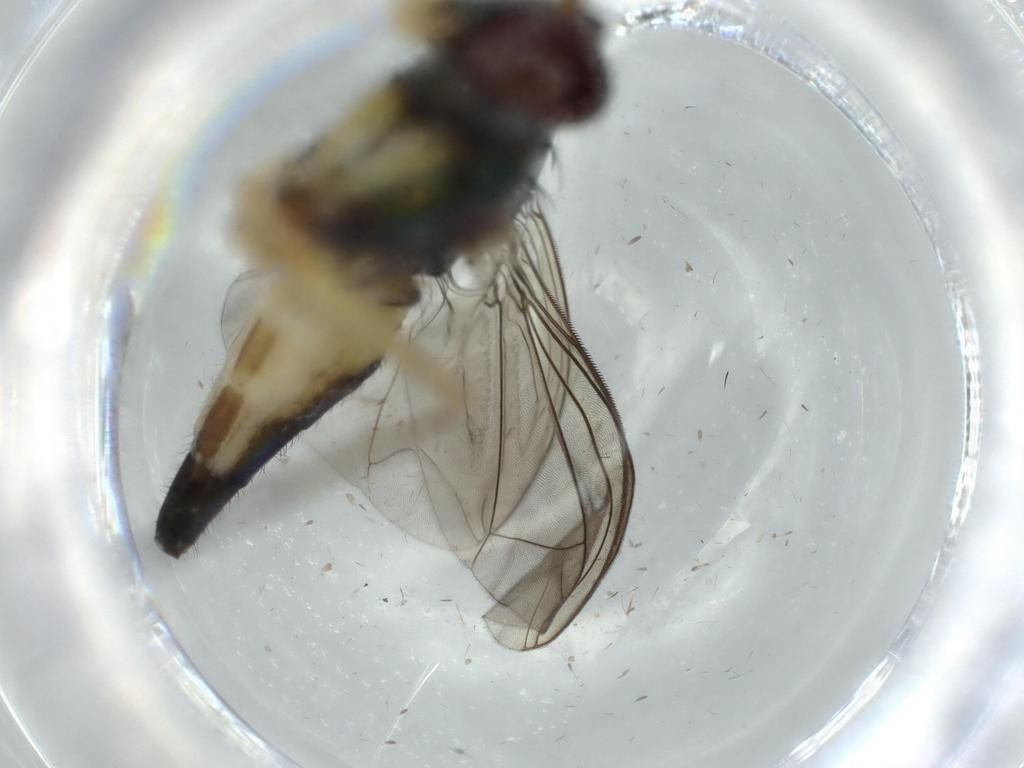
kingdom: Animalia
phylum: Arthropoda
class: Insecta
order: Diptera
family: Dolichopodidae
